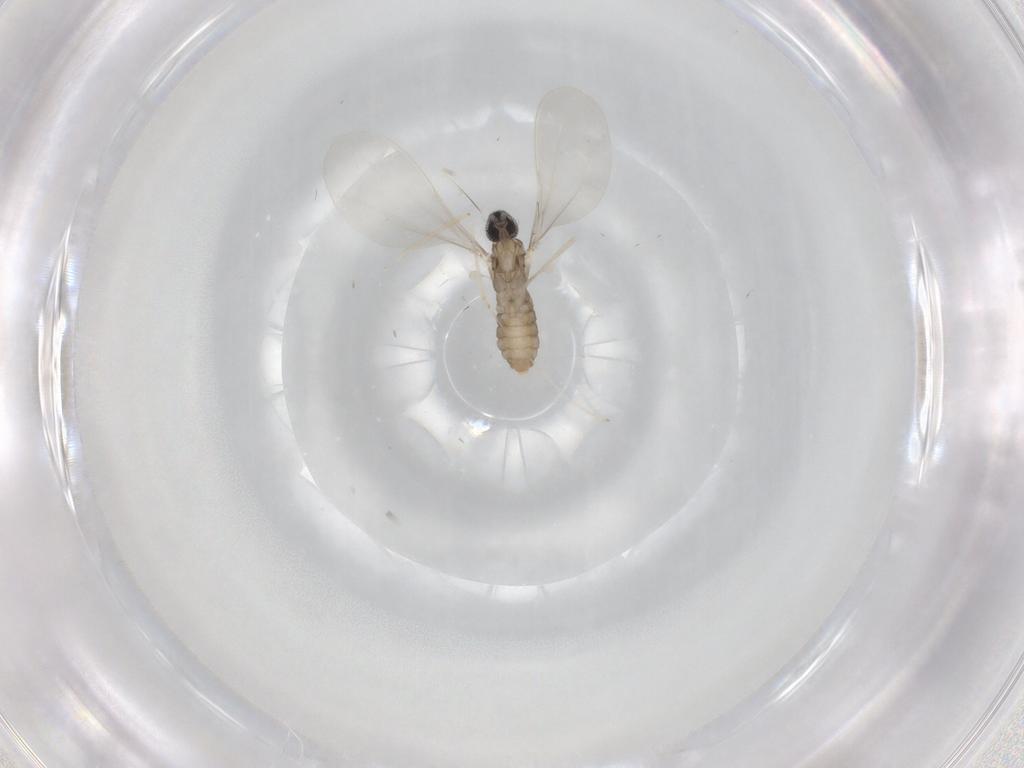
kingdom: Animalia
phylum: Arthropoda
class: Insecta
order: Diptera
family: Cecidomyiidae
